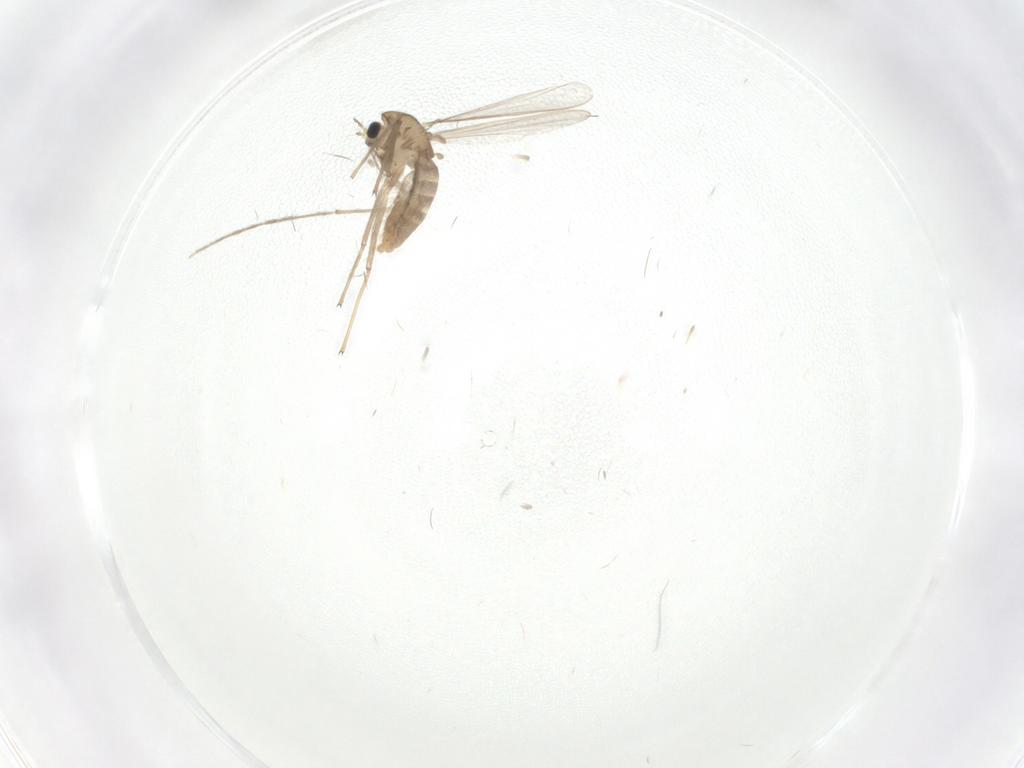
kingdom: Animalia
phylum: Arthropoda
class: Insecta
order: Diptera
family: Chironomidae
